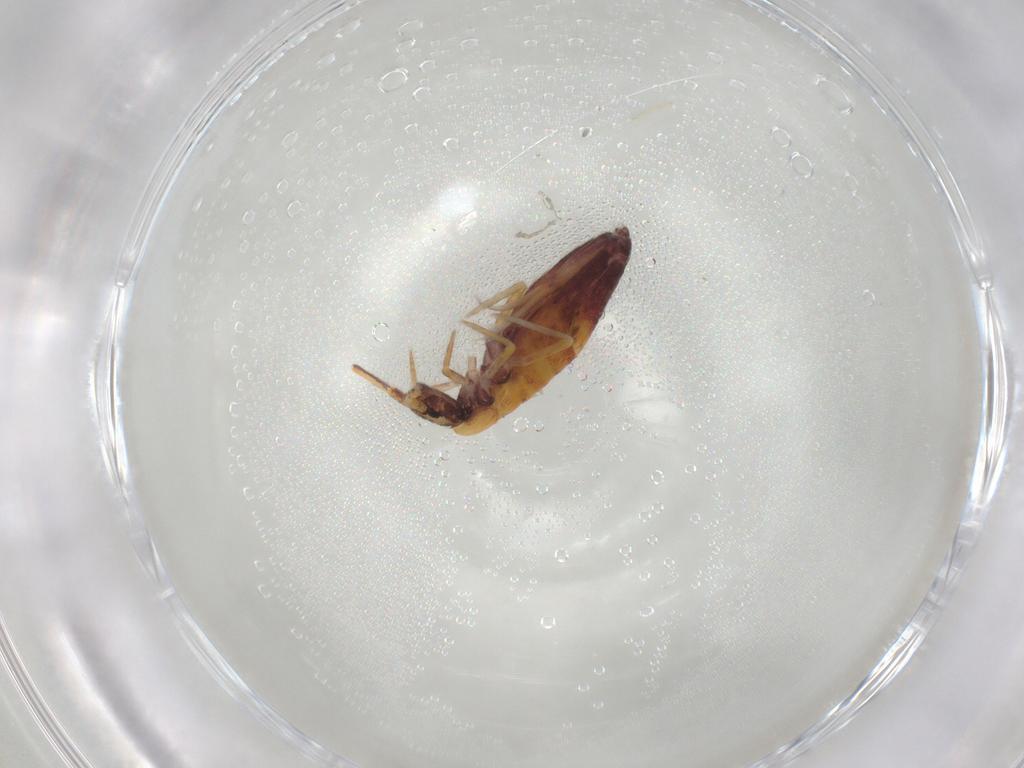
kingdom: Animalia
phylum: Arthropoda
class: Collembola
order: Entomobryomorpha
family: Entomobryidae
